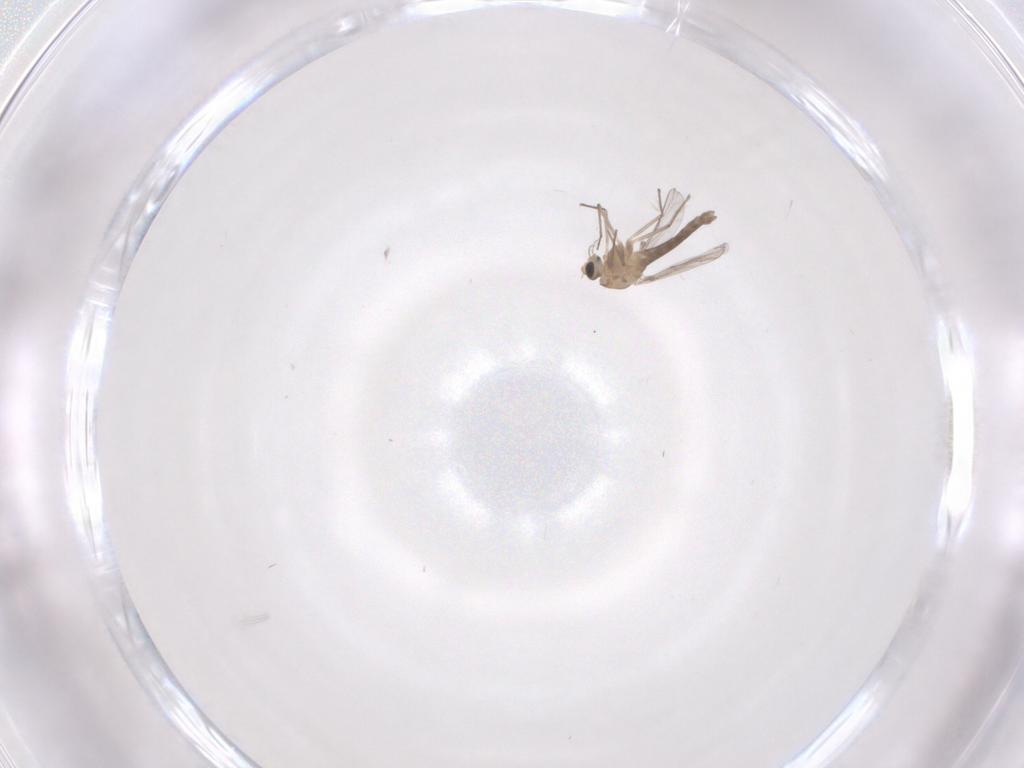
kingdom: Animalia
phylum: Arthropoda
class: Insecta
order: Diptera
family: Chironomidae
